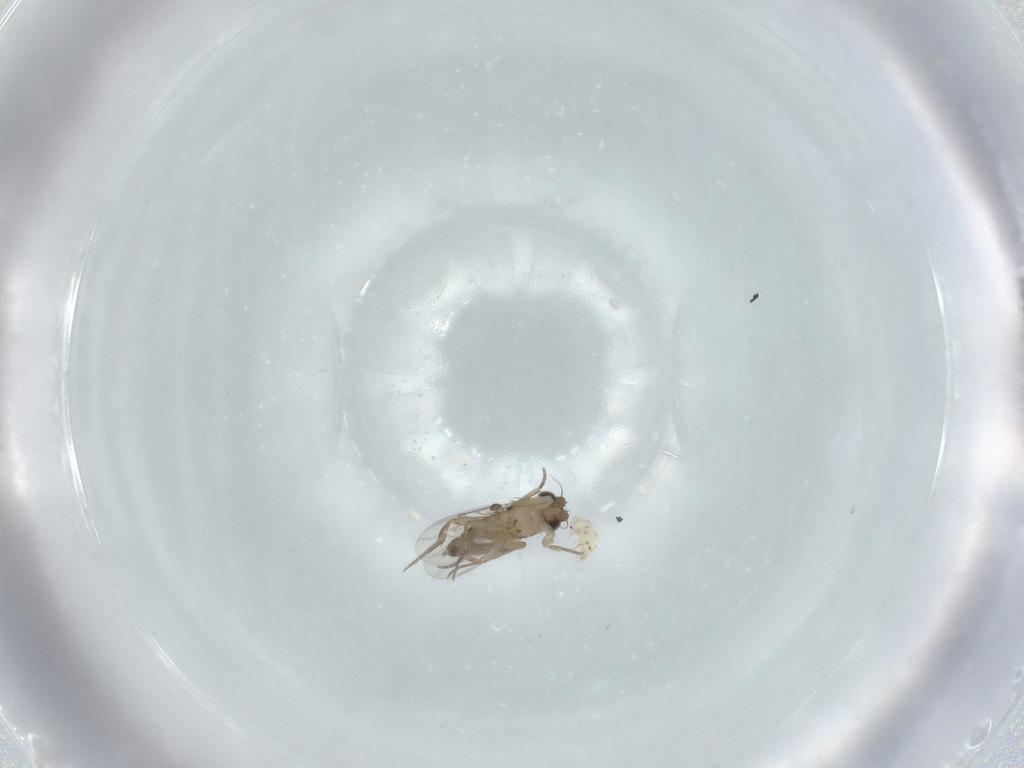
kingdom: Animalia
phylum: Arthropoda
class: Insecta
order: Diptera
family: Phoridae
